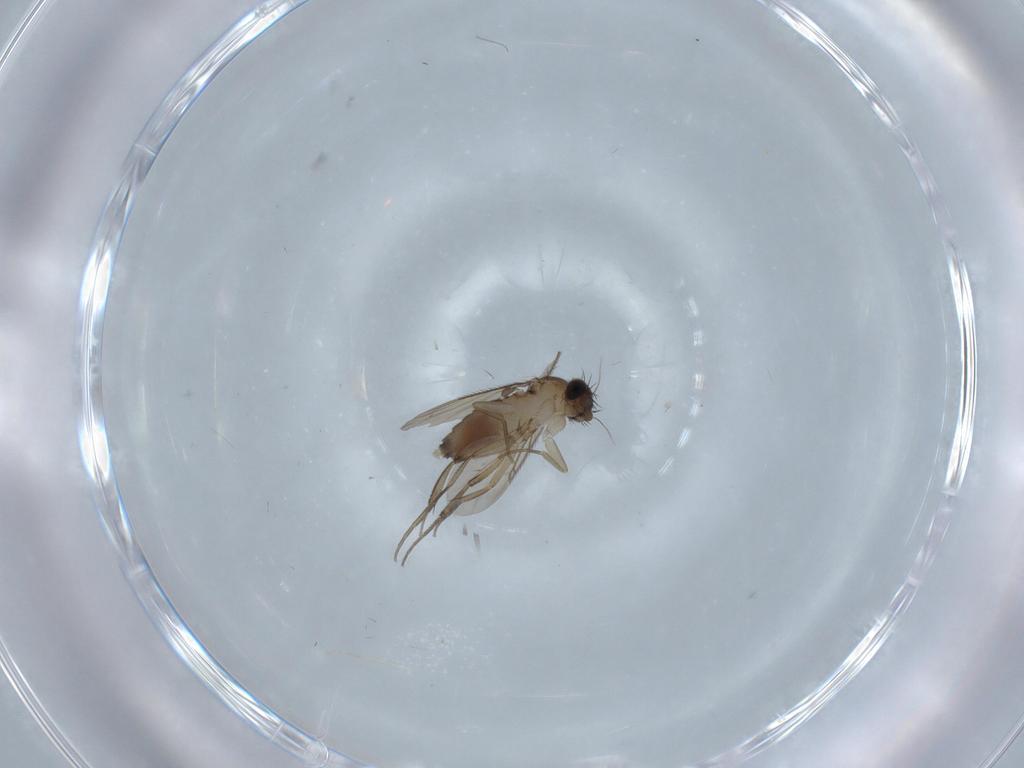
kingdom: Animalia
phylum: Arthropoda
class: Insecta
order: Diptera
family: Phoridae
